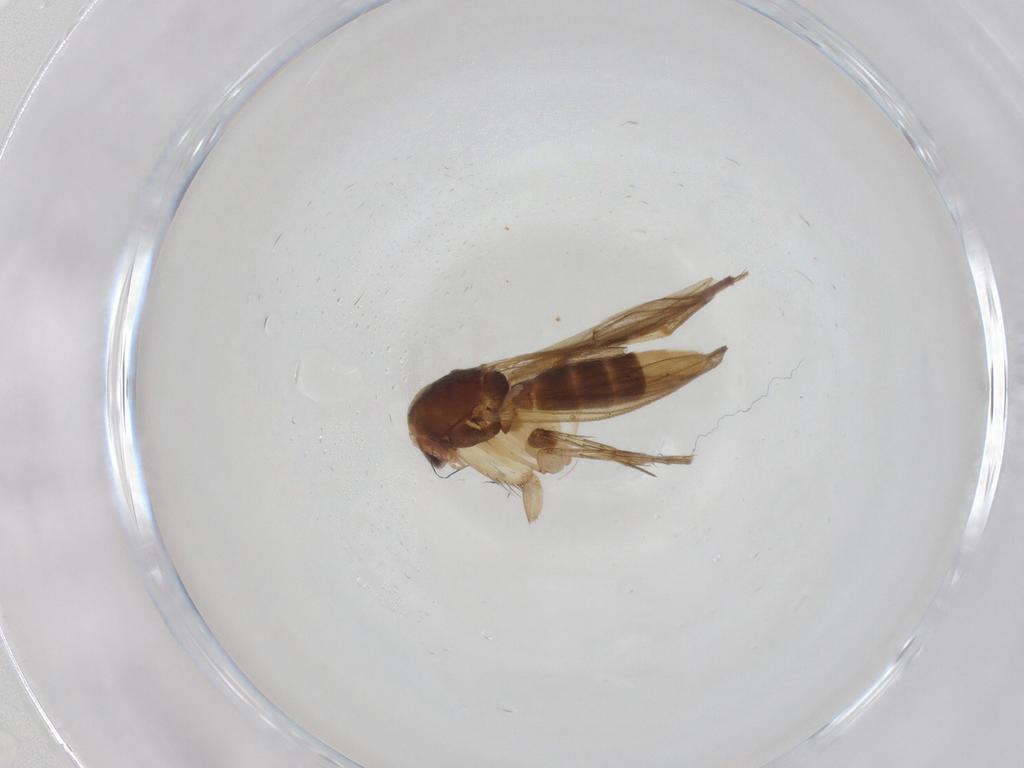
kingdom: Animalia
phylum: Arthropoda
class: Insecta
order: Diptera
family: Mycetophilidae
